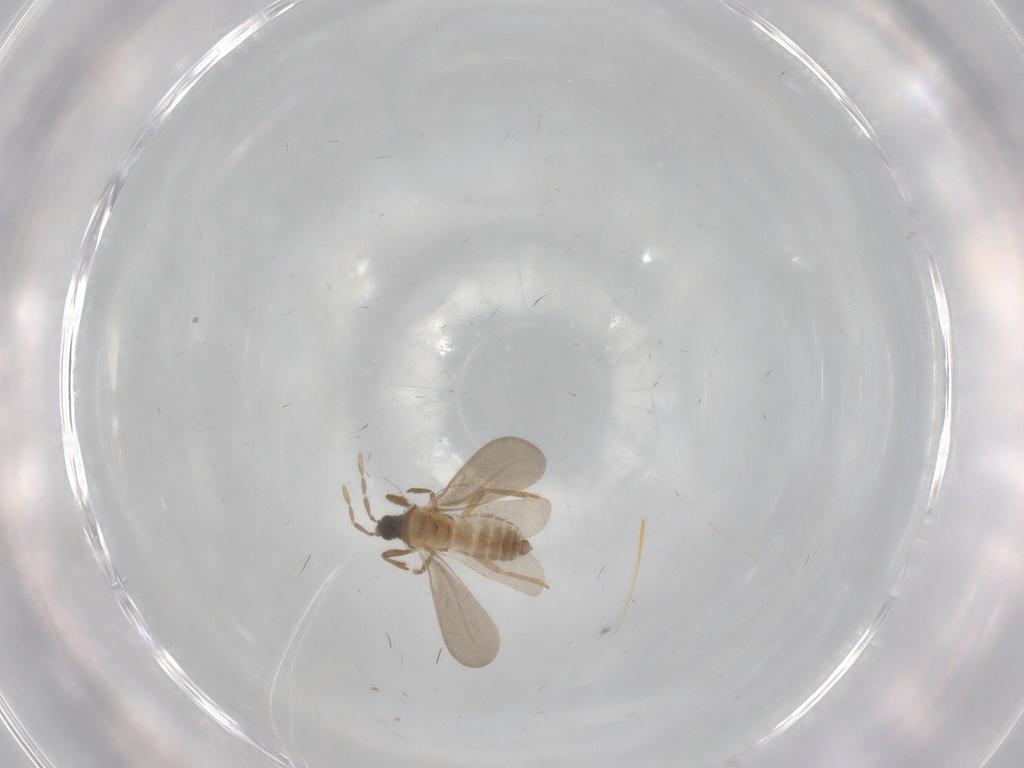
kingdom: Animalia
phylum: Arthropoda
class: Insecta
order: Hemiptera
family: Enicocephalidae
